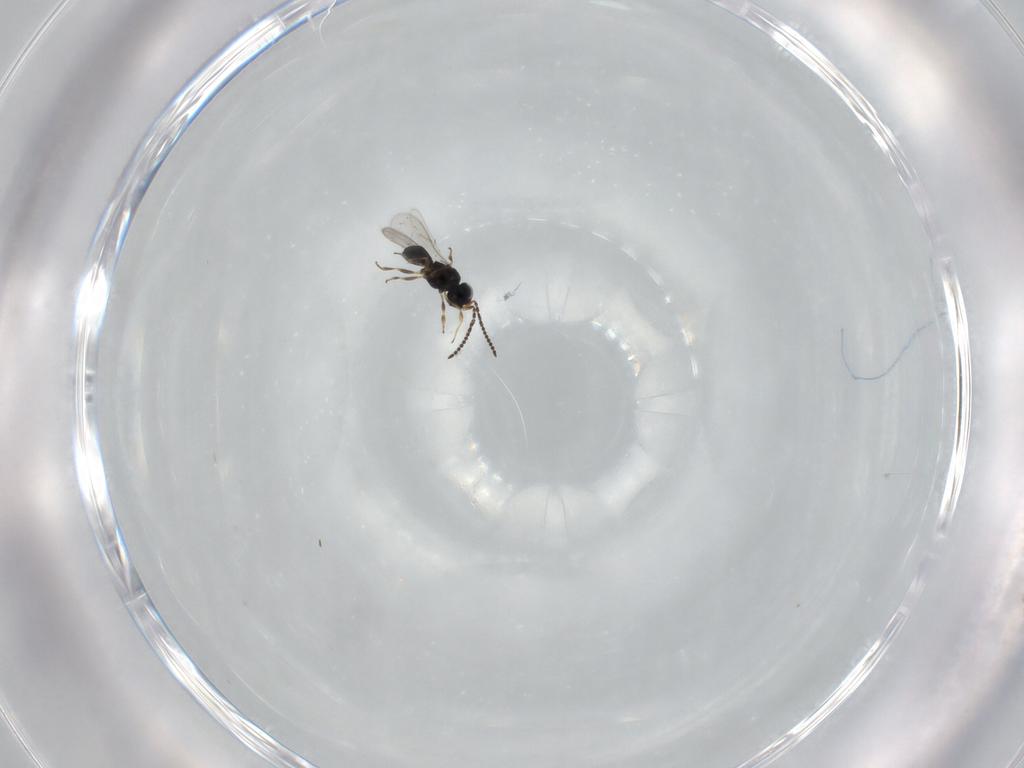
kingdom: Animalia
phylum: Arthropoda
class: Insecta
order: Hymenoptera
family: Scelionidae
